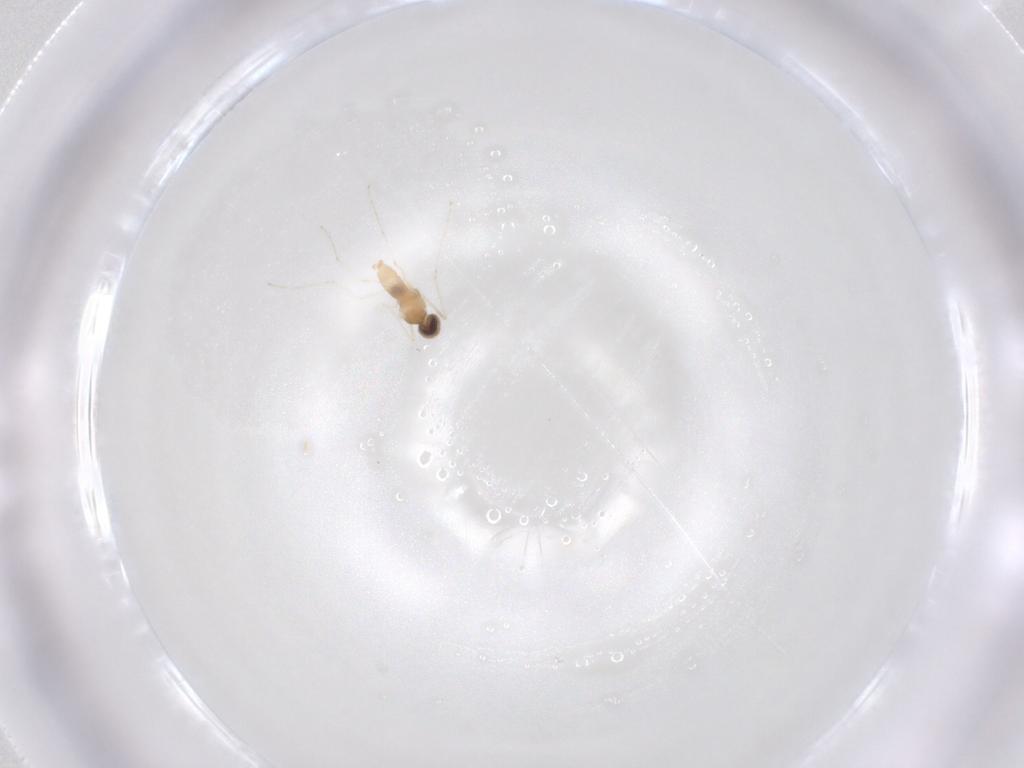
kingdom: Animalia
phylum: Arthropoda
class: Insecta
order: Diptera
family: Cecidomyiidae
